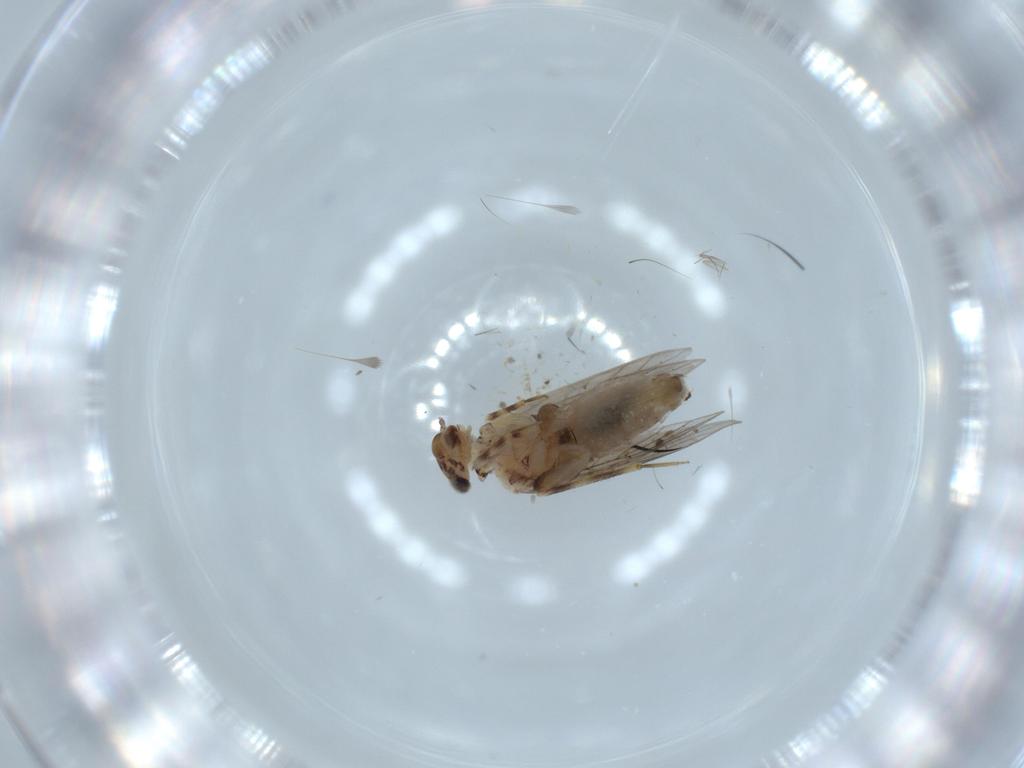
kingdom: Animalia
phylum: Arthropoda
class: Insecta
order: Psocodea
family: Lepidopsocidae
